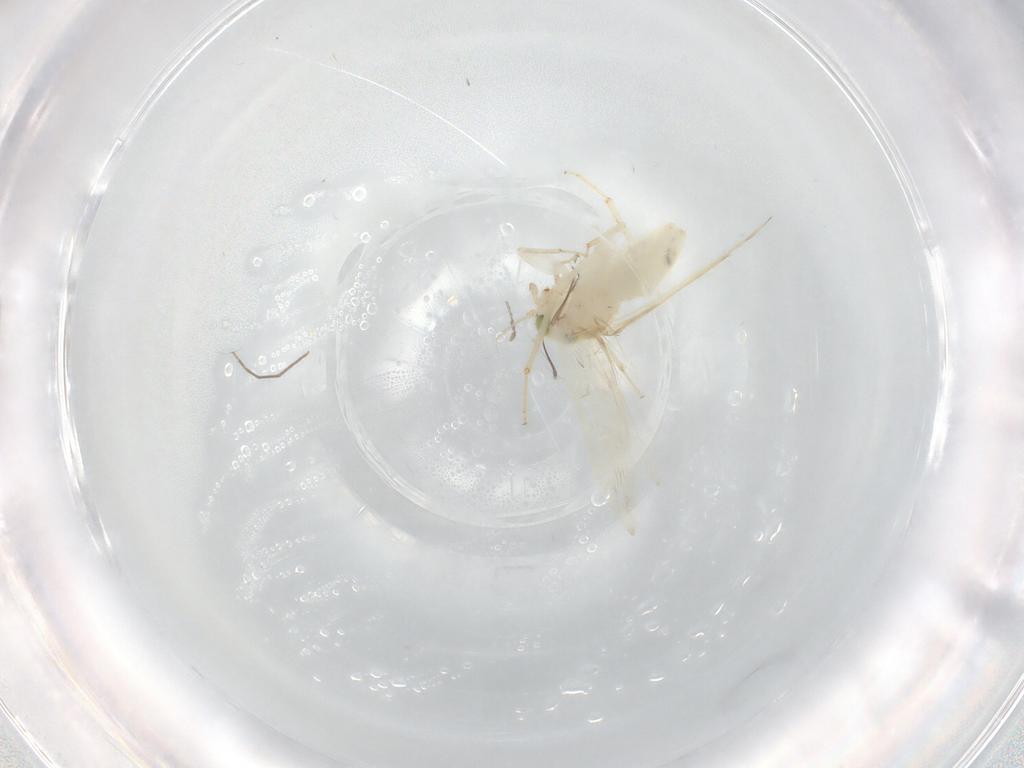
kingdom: Animalia
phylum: Arthropoda
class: Insecta
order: Psocodea
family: Lepidopsocidae
